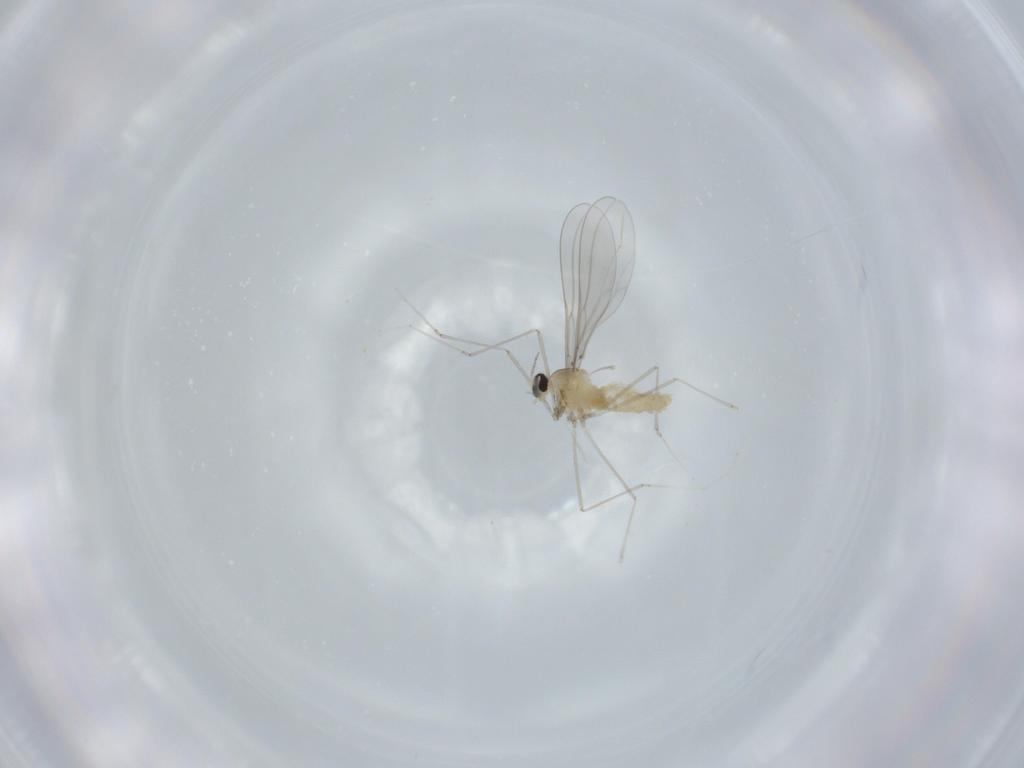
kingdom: Animalia
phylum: Arthropoda
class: Insecta
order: Diptera
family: Cecidomyiidae
